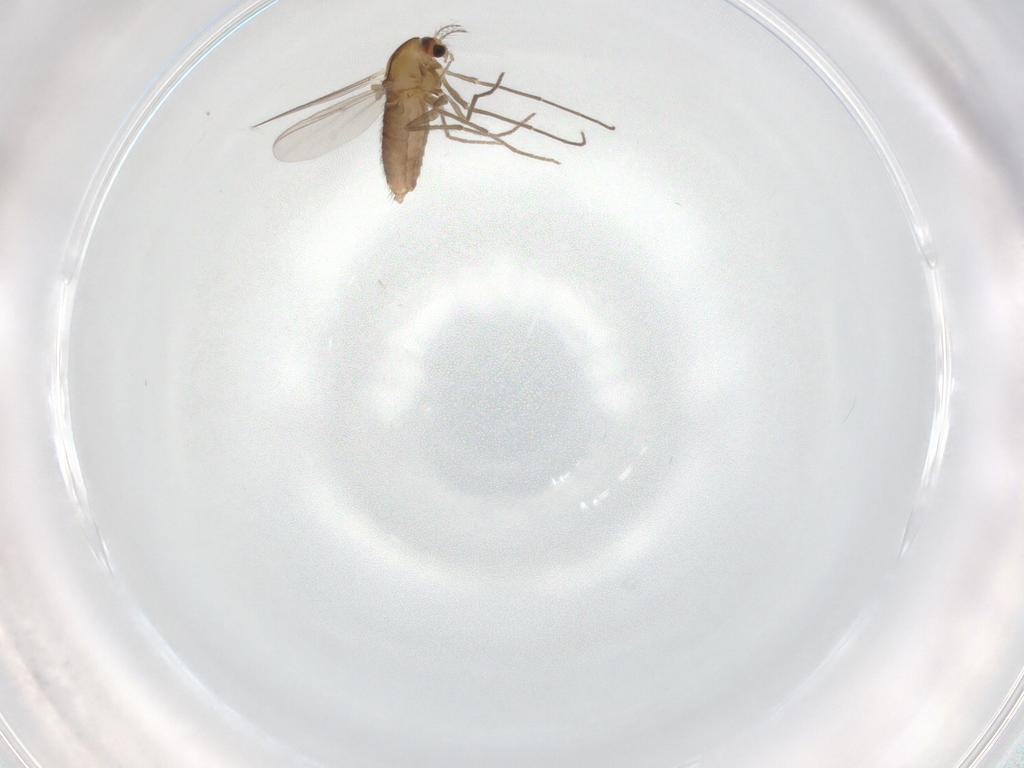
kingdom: Animalia
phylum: Arthropoda
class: Insecta
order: Diptera
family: Chironomidae
